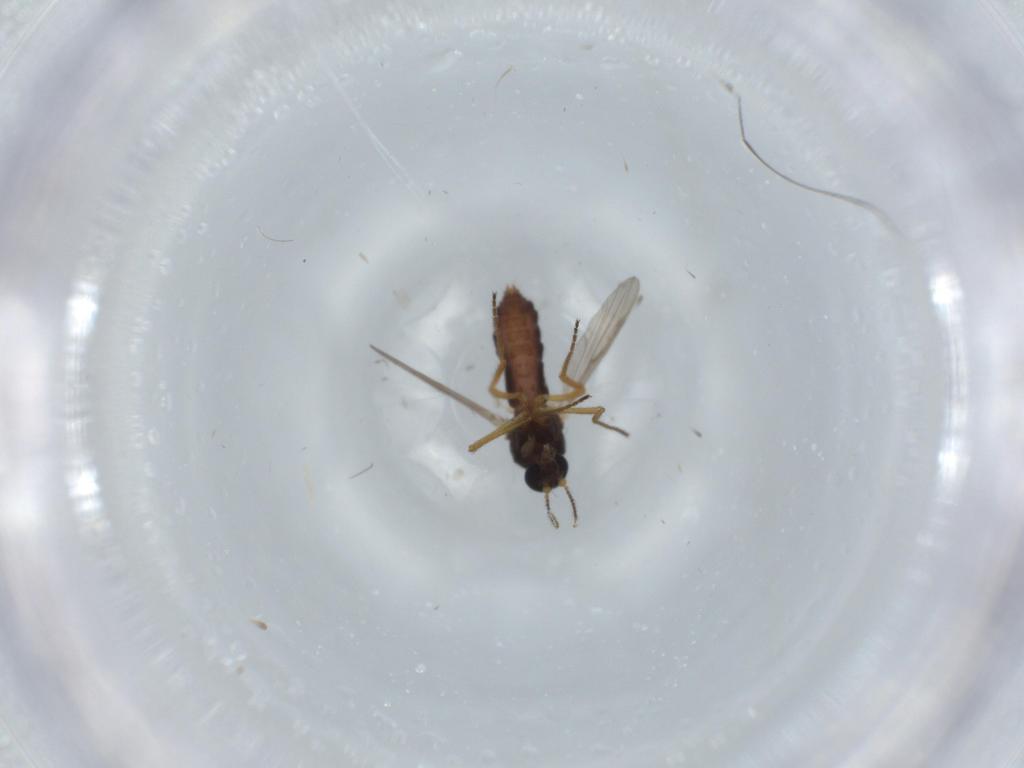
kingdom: Animalia
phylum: Arthropoda
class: Insecta
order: Diptera
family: Ceratopogonidae
